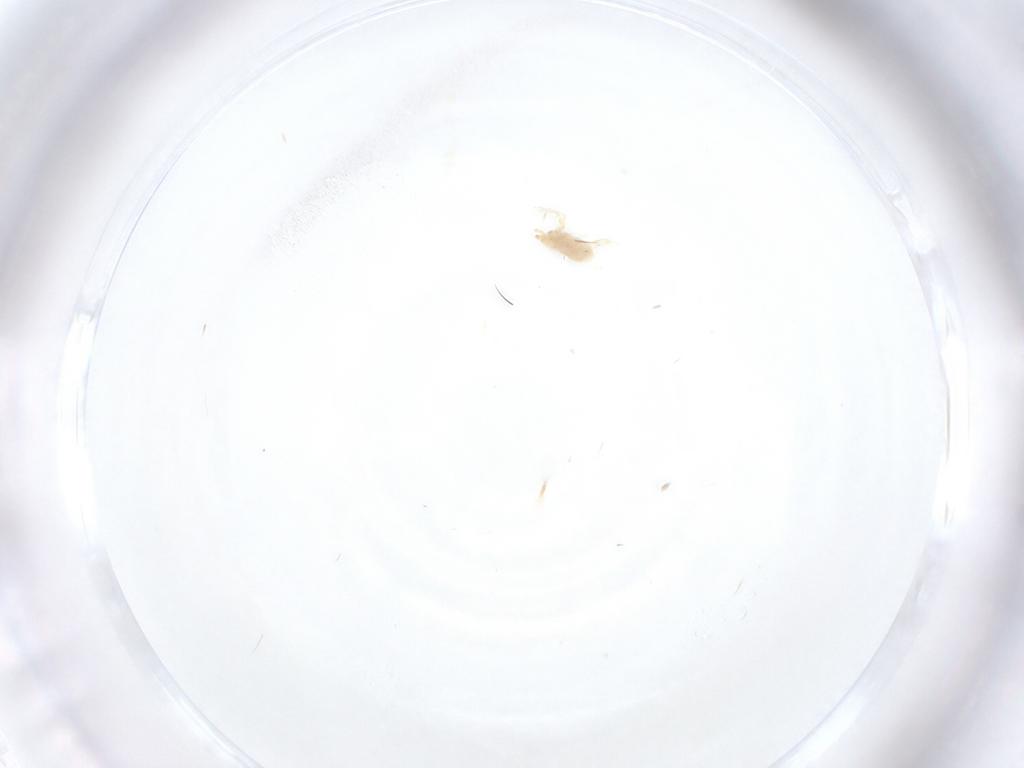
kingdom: Animalia
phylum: Arthropoda
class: Arachnida
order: Trombidiformes
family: Erythraeidae
